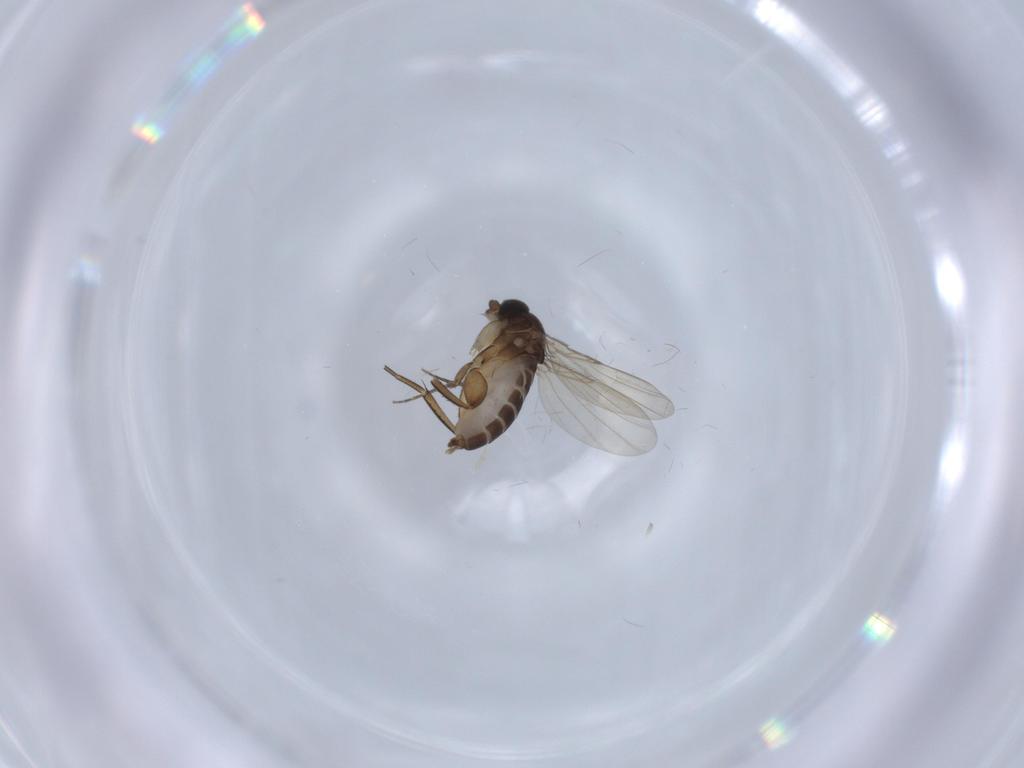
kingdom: Animalia
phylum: Arthropoda
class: Insecta
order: Diptera
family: Phoridae
